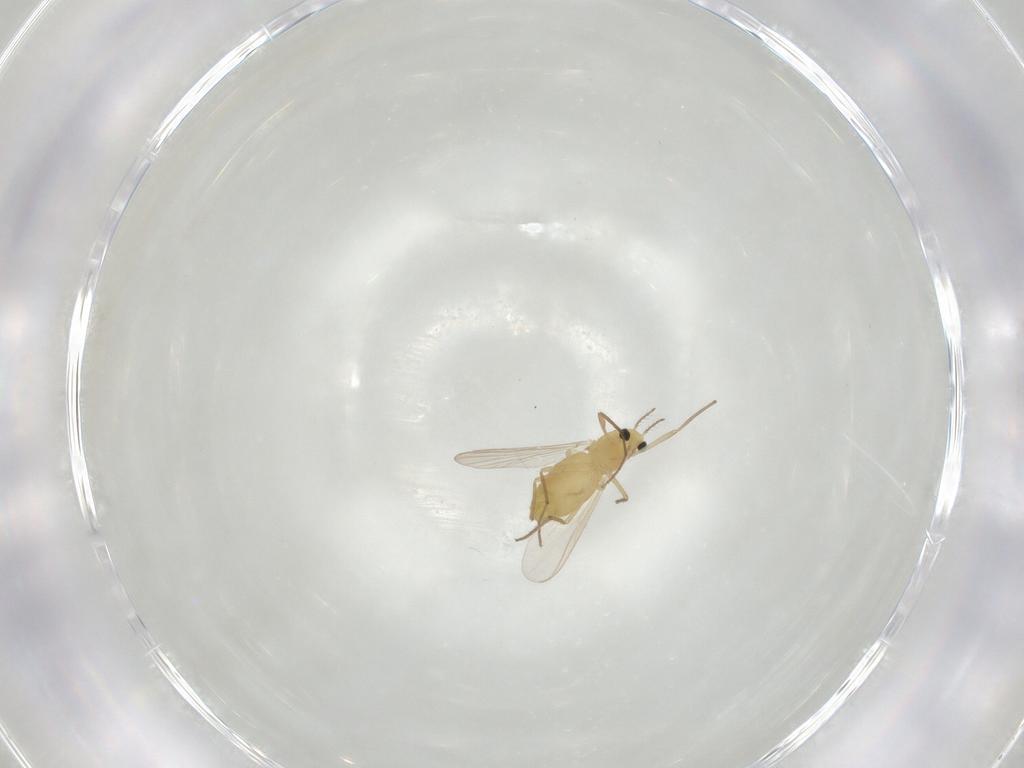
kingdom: Animalia
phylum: Arthropoda
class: Insecta
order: Diptera
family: Chironomidae
